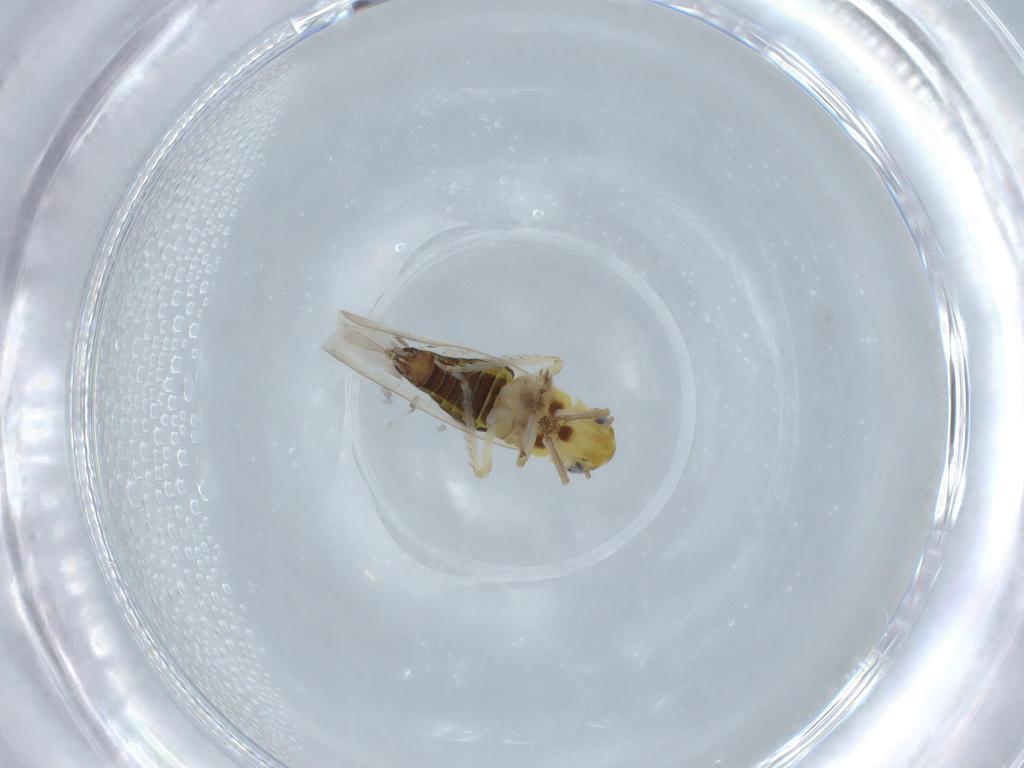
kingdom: Animalia
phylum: Arthropoda
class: Insecta
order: Hemiptera
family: Cicadellidae
